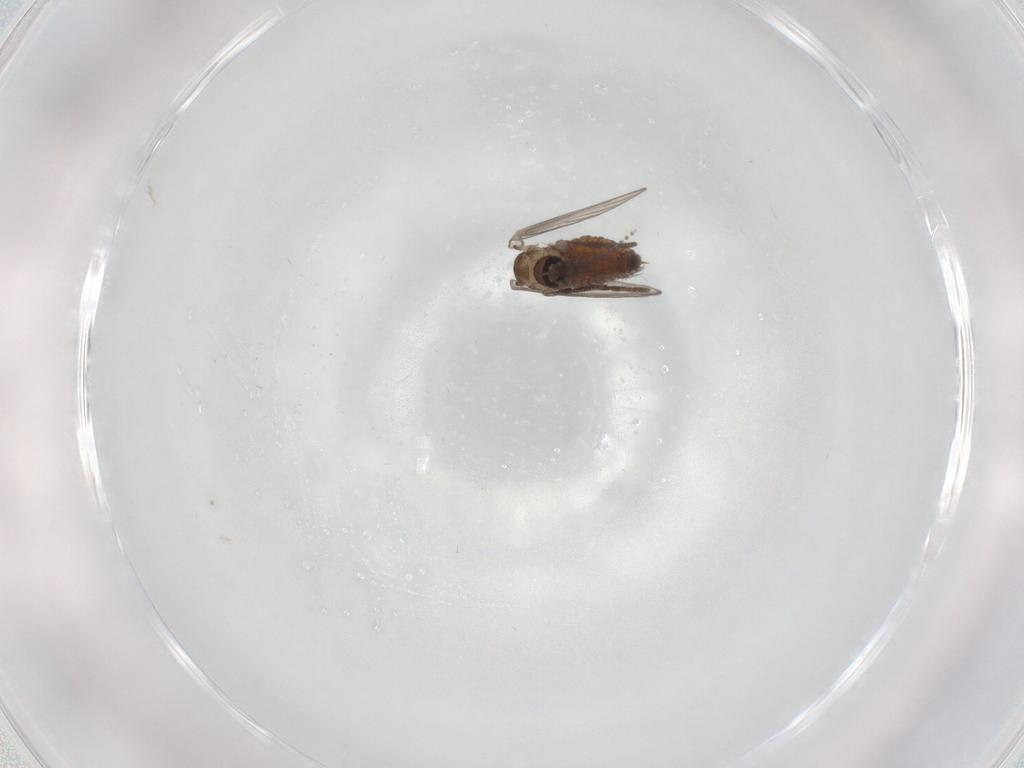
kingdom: Animalia
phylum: Arthropoda
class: Insecta
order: Diptera
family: Psychodidae
